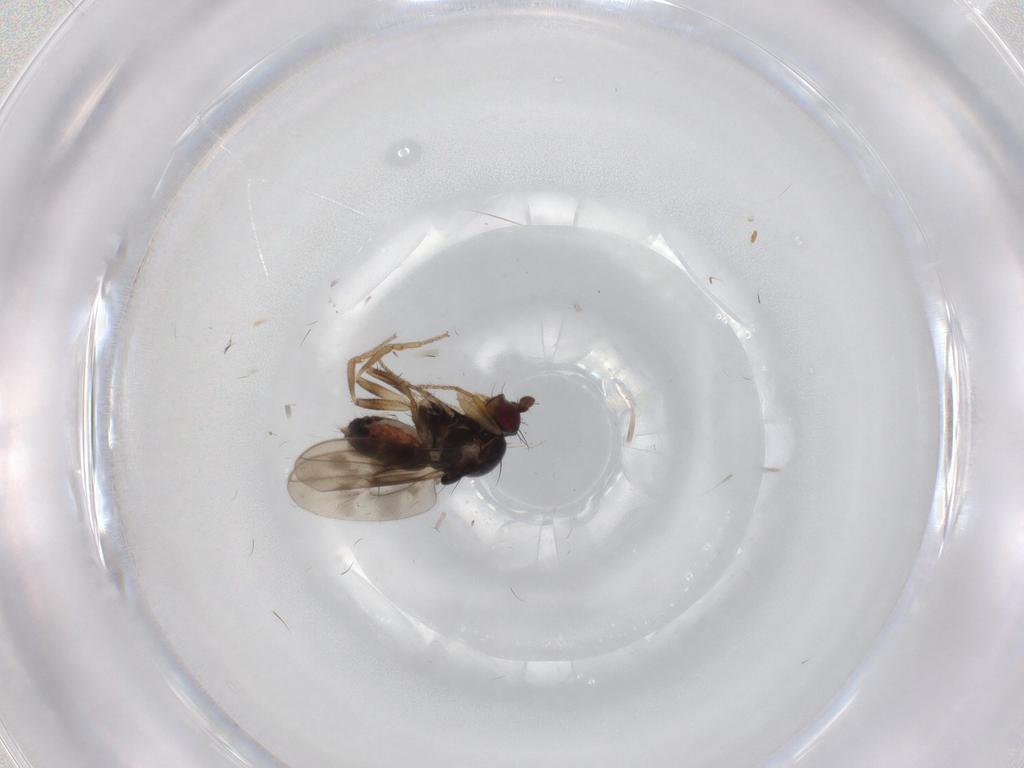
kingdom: Animalia
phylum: Arthropoda
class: Insecta
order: Diptera
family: Sphaeroceridae
